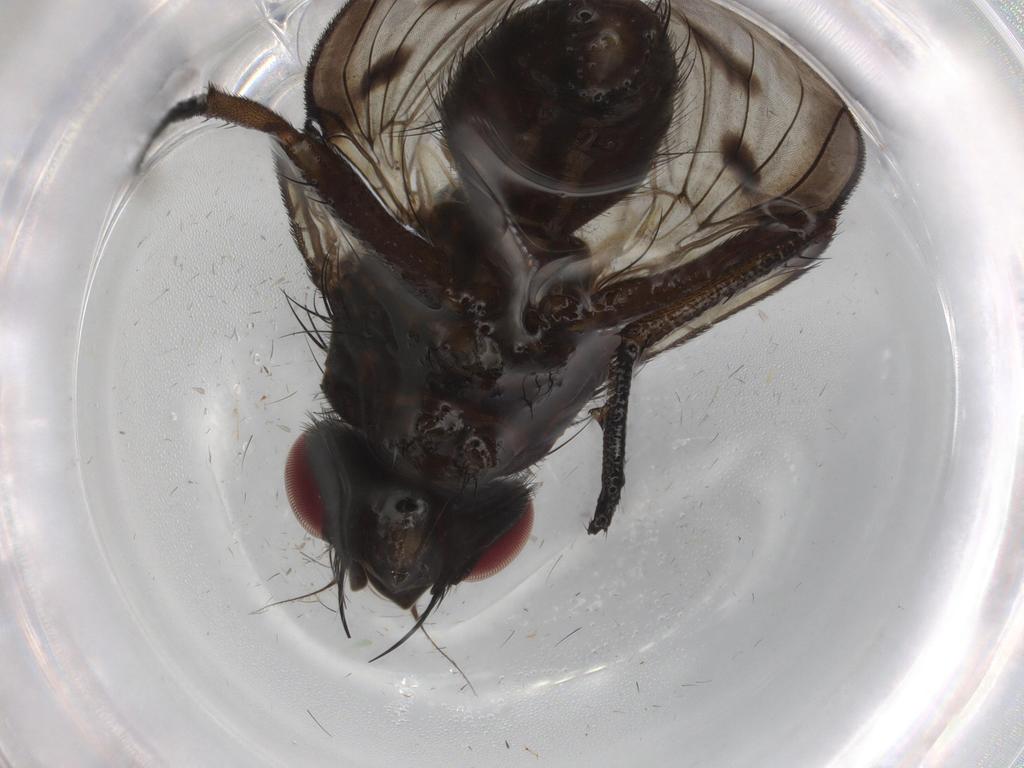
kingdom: Animalia
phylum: Arthropoda
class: Insecta
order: Diptera
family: Muscidae
